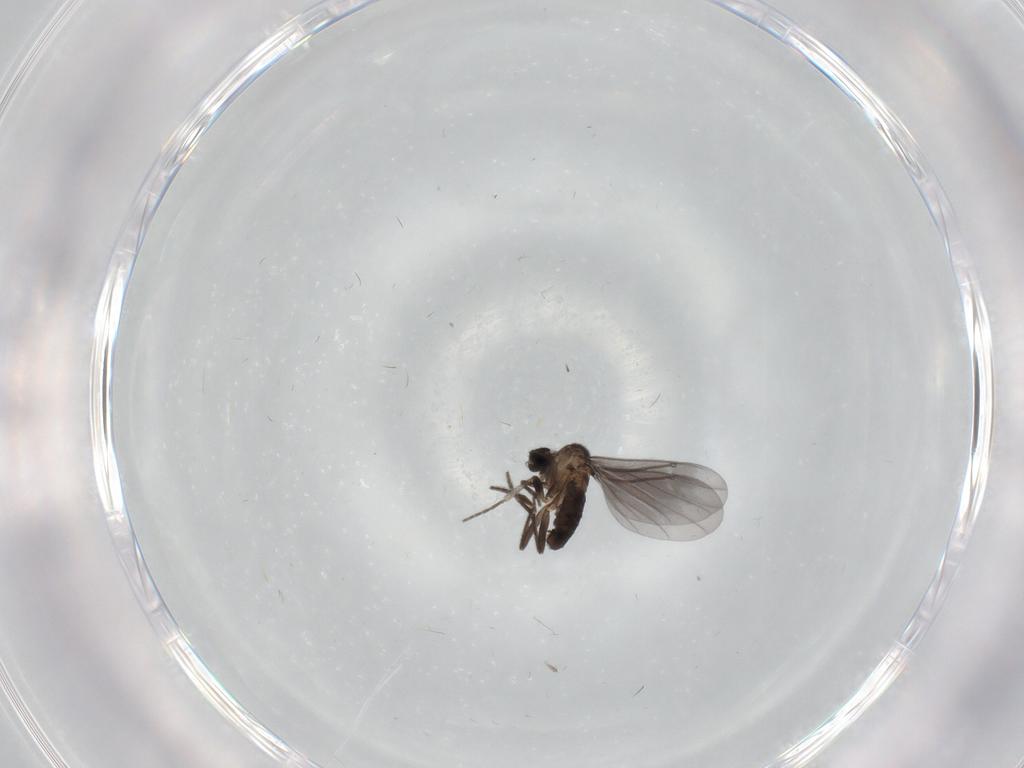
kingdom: Animalia
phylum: Arthropoda
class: Insecta
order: Diptera
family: Phoridae
